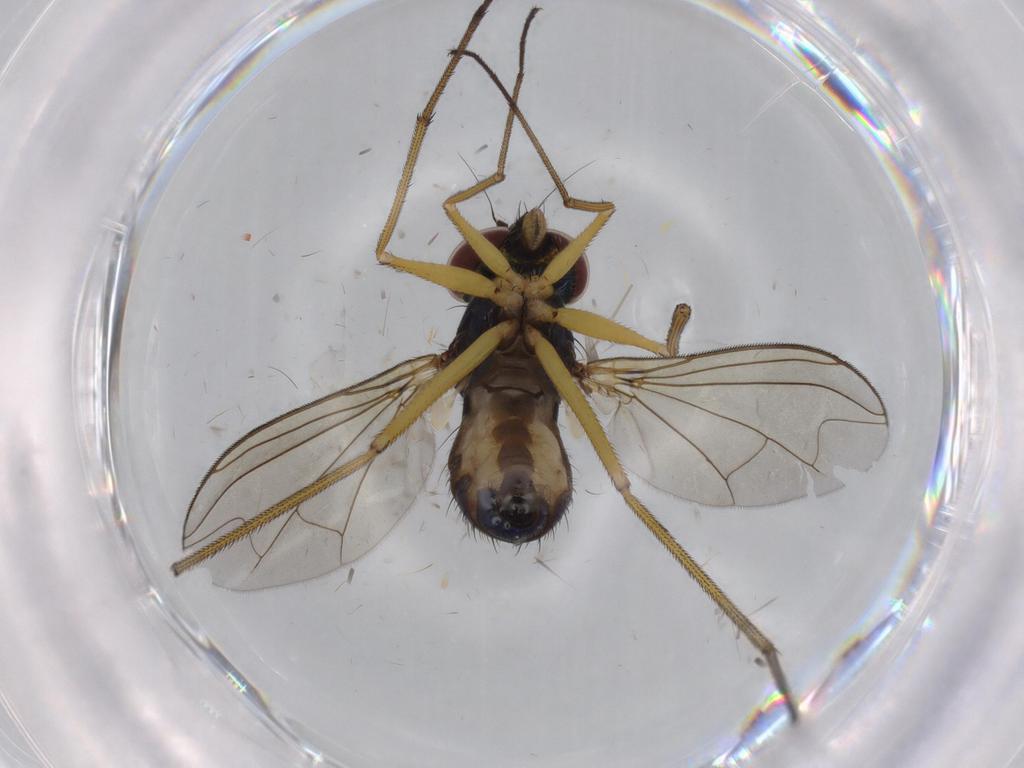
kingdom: Animalia
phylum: Arthropoda
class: Insecta
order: Diptera
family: Dolichopodidae
